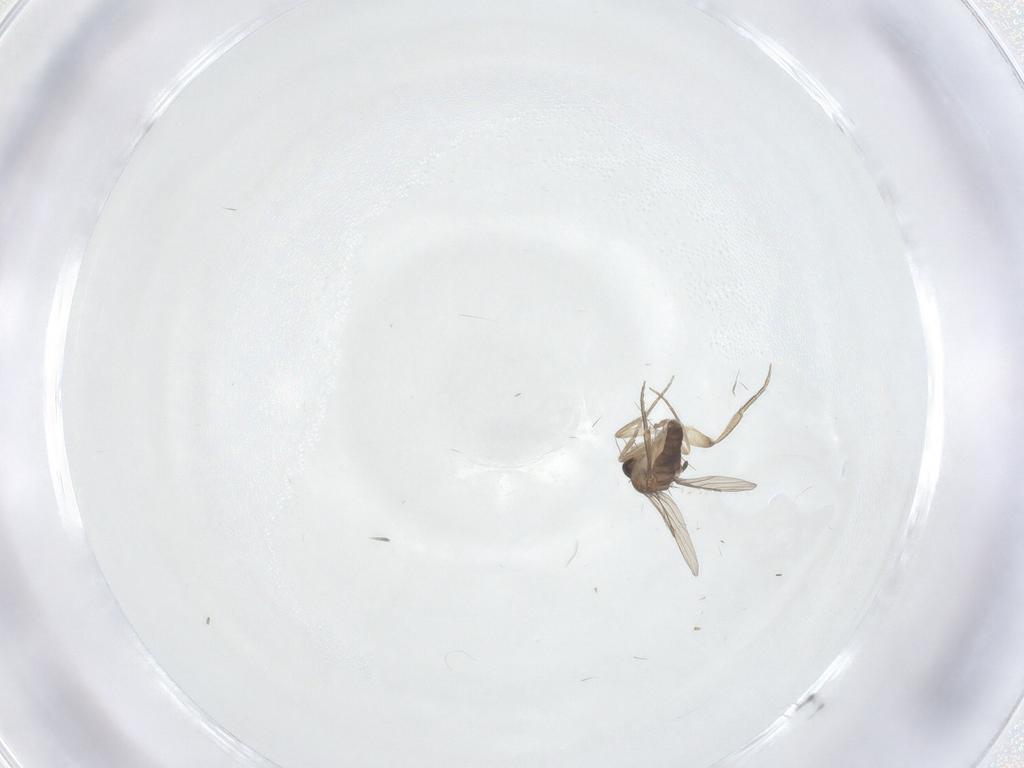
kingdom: Animalia
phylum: Arthropoda
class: Insecta
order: Diptera
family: Sciaridae
